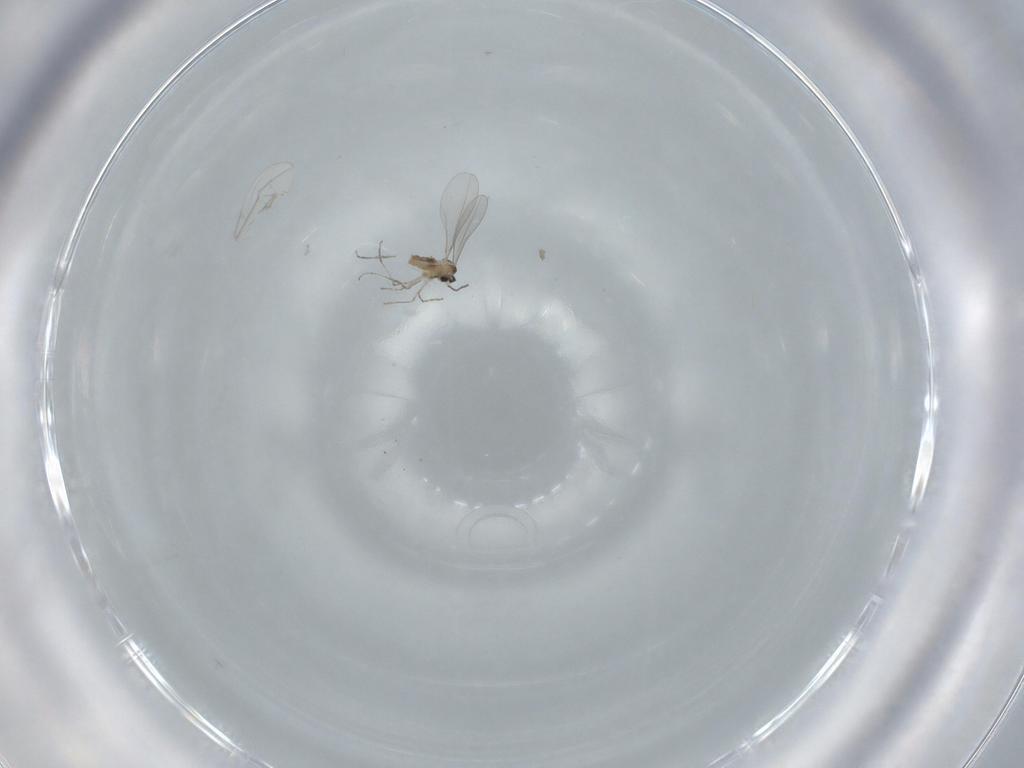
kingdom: Animalia
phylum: Arthropoda
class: Insecta
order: Diptera
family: Cecidomyiidae
